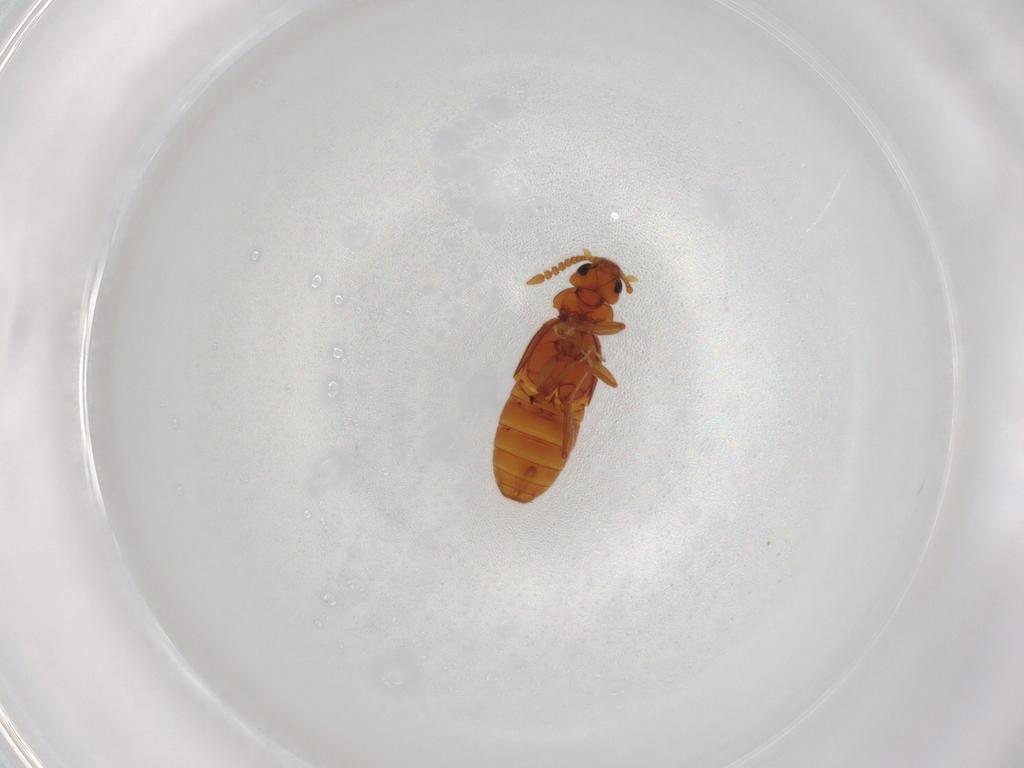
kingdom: Animalia
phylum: Arthropoda
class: Insecta
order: Coleoptera
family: Staphylinidae
